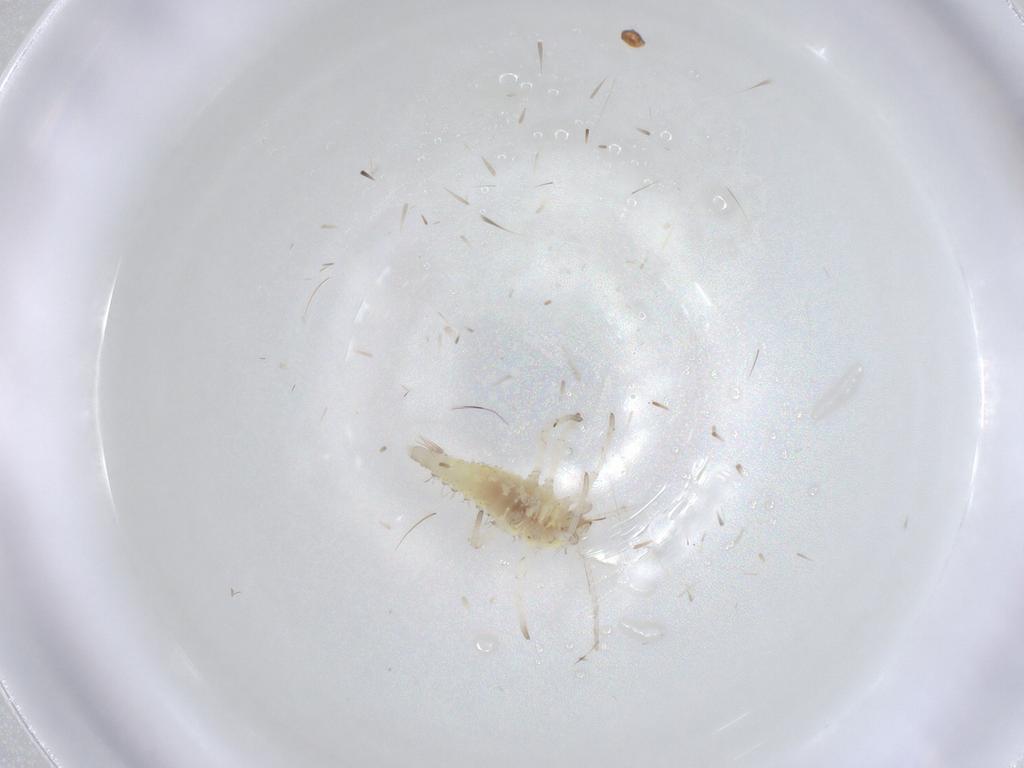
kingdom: Animalia
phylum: Arthropoda
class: Insecta
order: Neuroptera
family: Coniopterygidae
